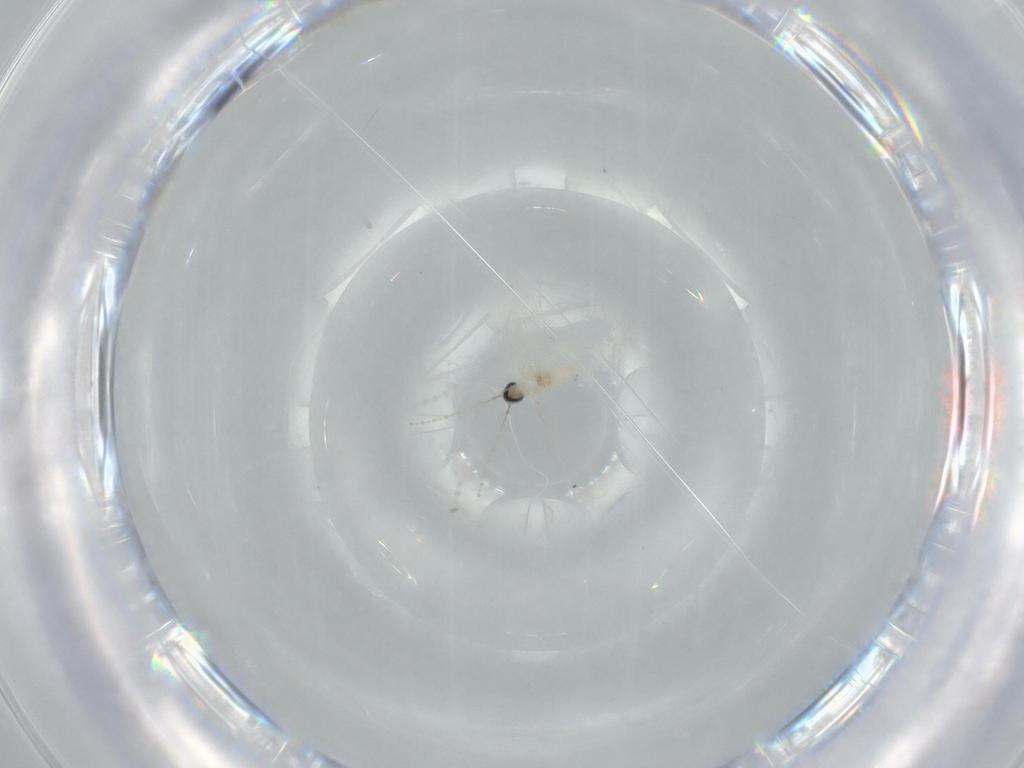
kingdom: Animalia
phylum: Arthropoda
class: Insecta
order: Diptera
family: Cecidomyiidae
